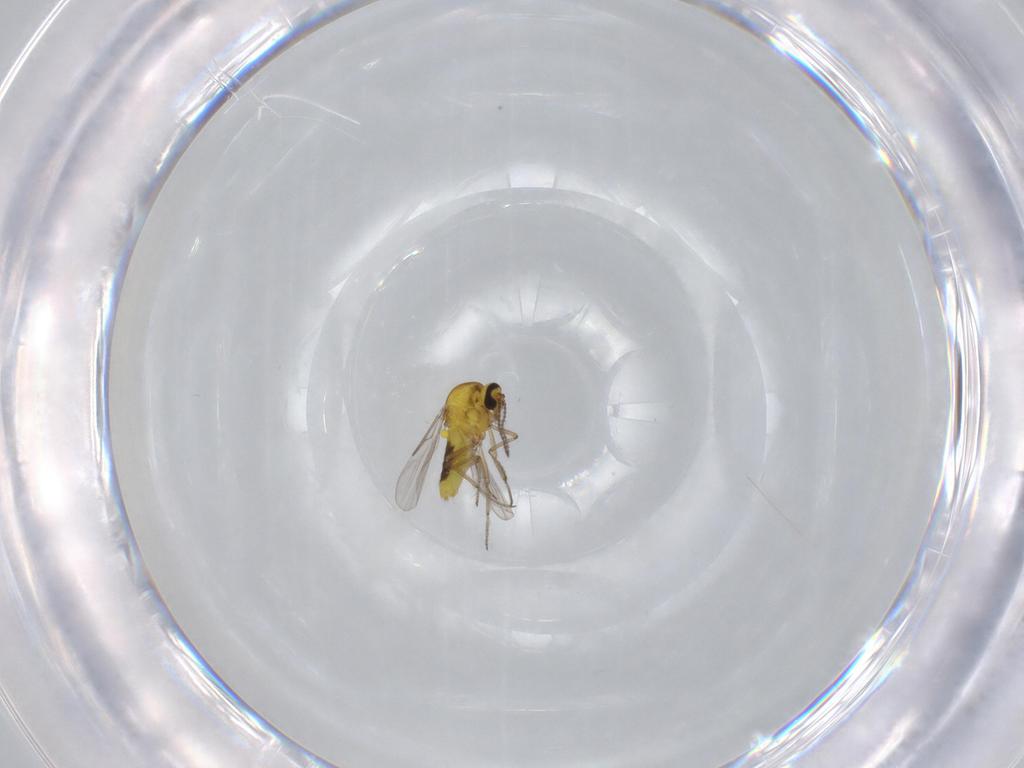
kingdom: Animalia
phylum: Arthropoda
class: Insecta
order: Diptera
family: Ceratopogonidae
